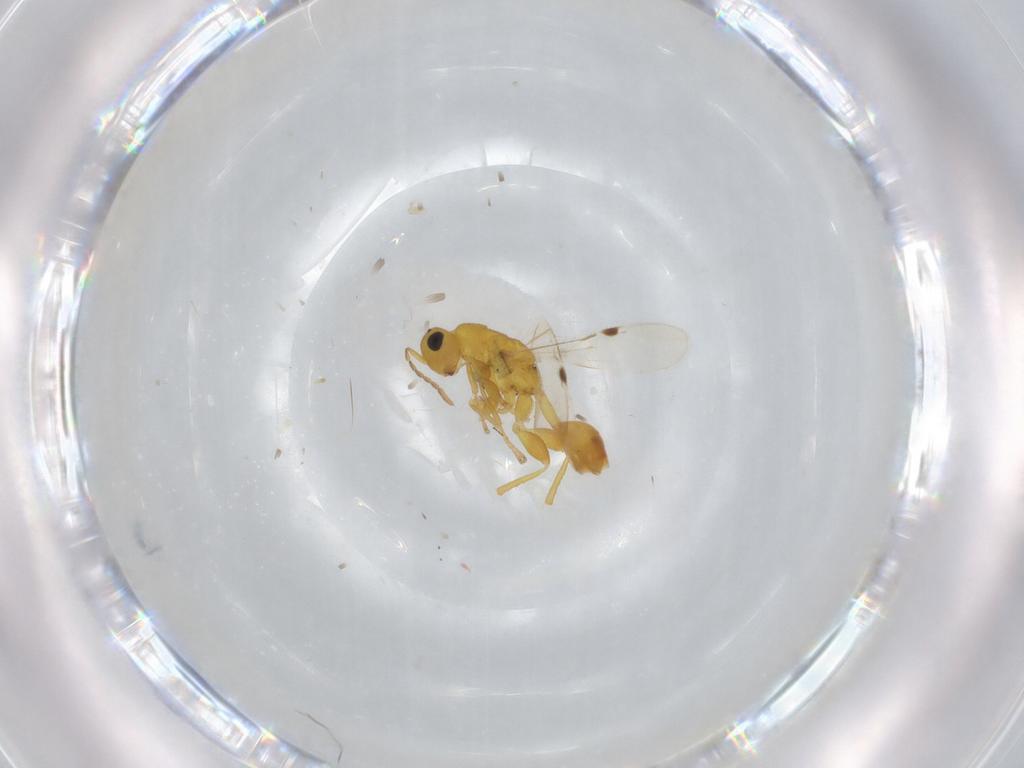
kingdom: Animalia
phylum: Arthropoda
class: Insecta
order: Hymenoptera
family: Eurytomidae
